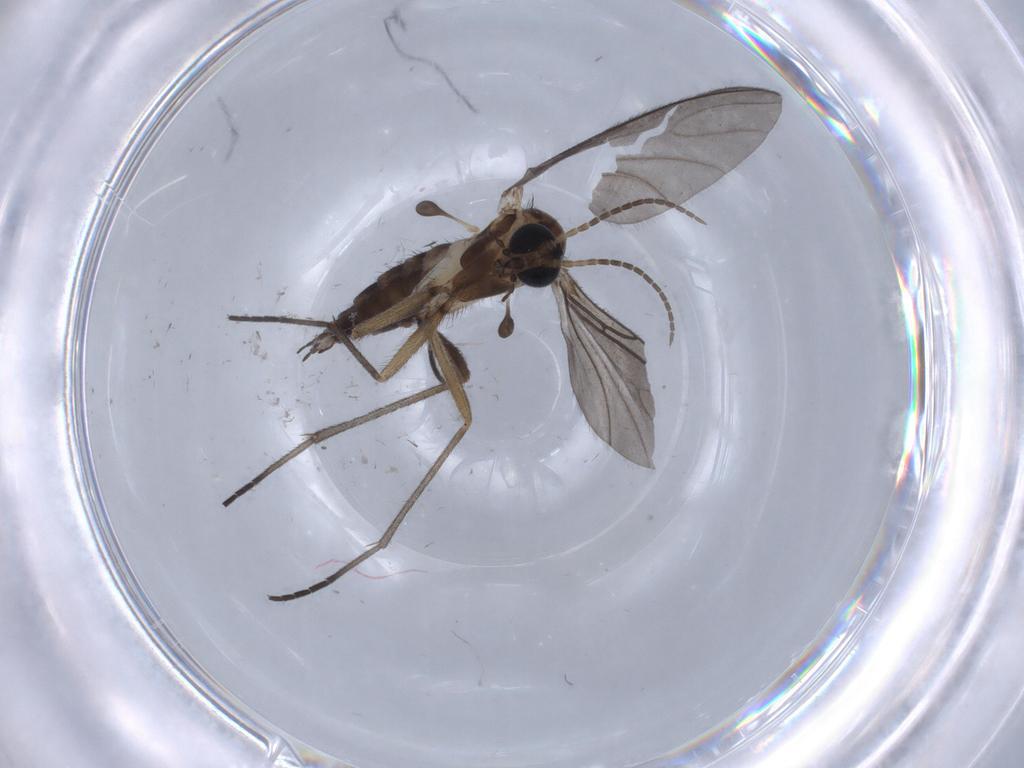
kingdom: Animalia
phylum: Arthropoda
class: Insecta
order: Diptera
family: Sciaridae
